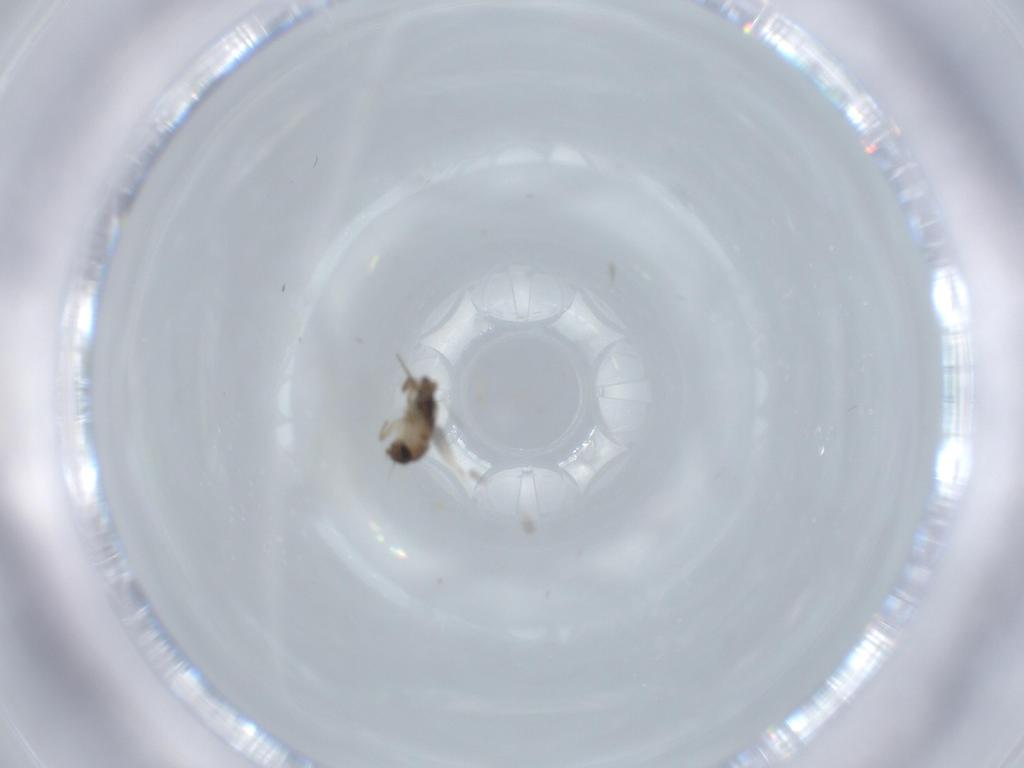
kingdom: Animalia
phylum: Arthropoda
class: Insecta
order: Diptera
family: Phoridae
